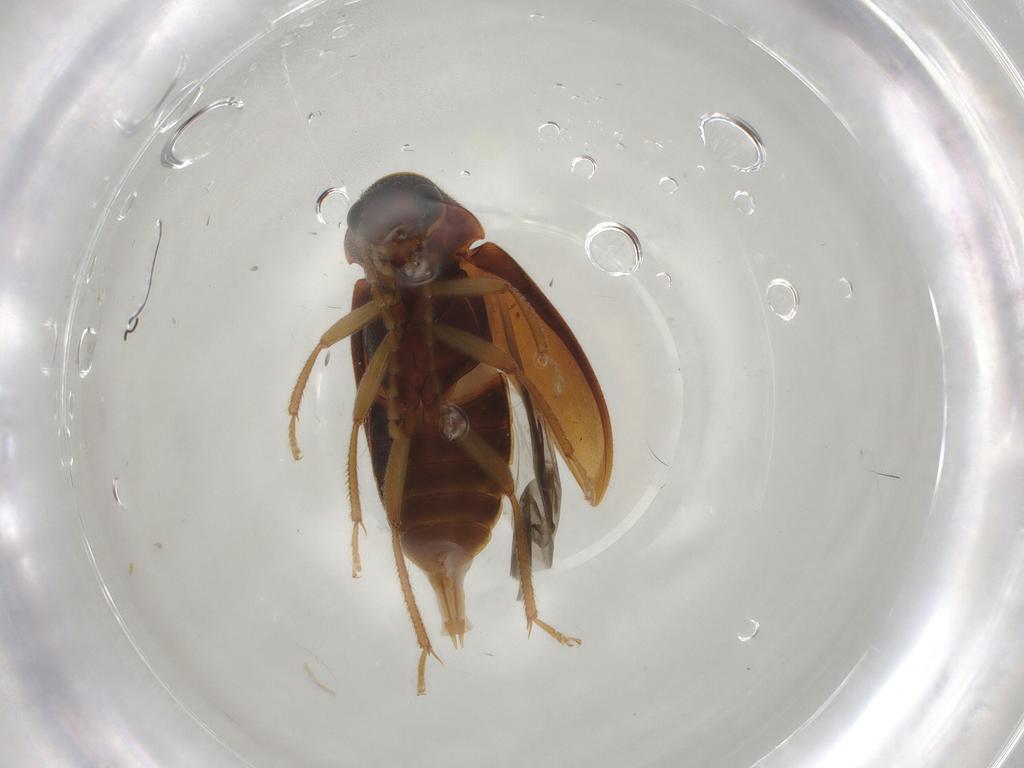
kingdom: Animalia
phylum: Arthropoda
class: Insecta
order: Coleoptera
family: Ptilodactylidae
